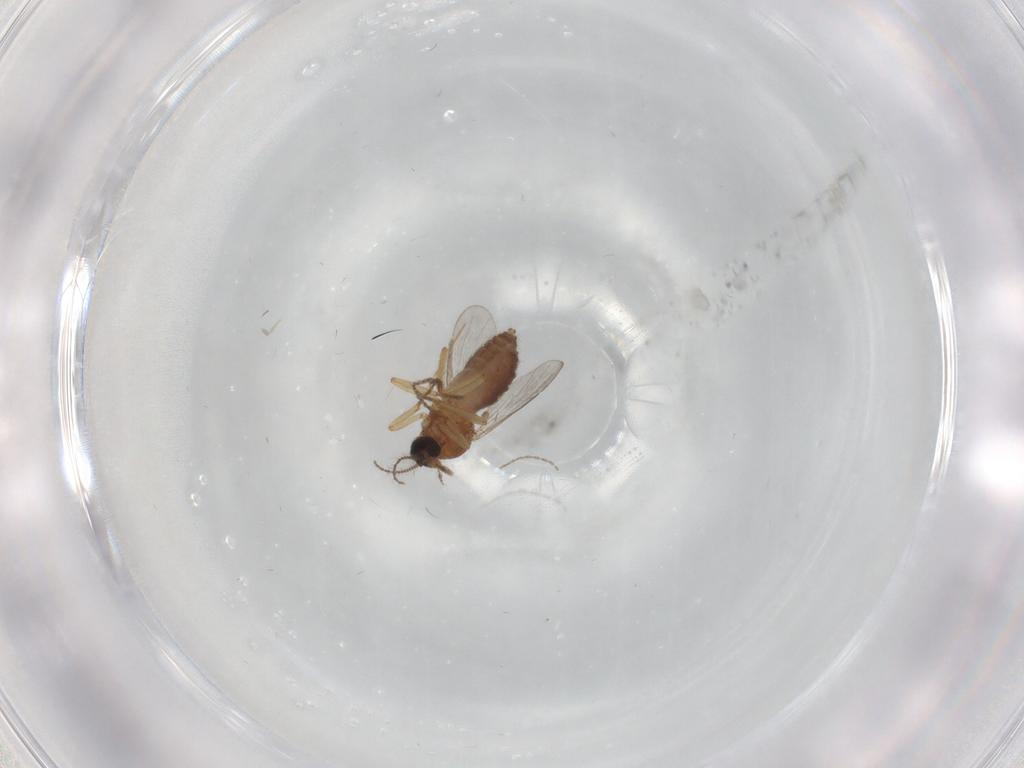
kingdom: Animalia
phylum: Arthropoda
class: Insecta
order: Diptera
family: Ceratopogonidae
